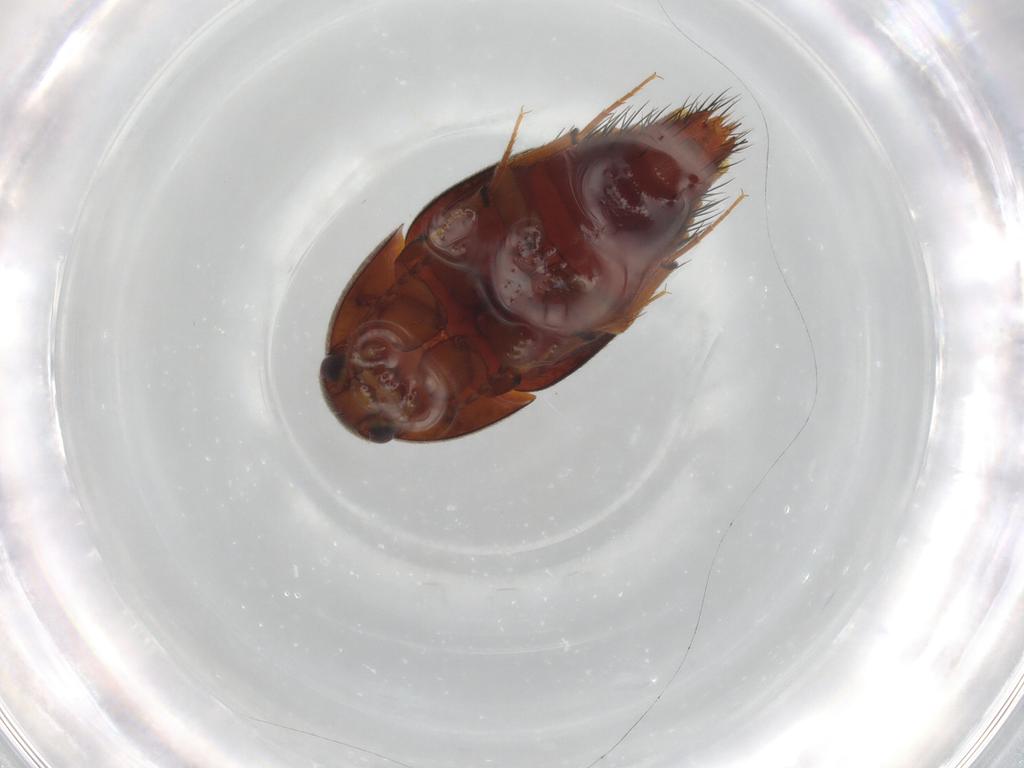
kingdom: Animalia
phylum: Arthropoda
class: Insecta
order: Coleoptera
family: Staphylinidae
